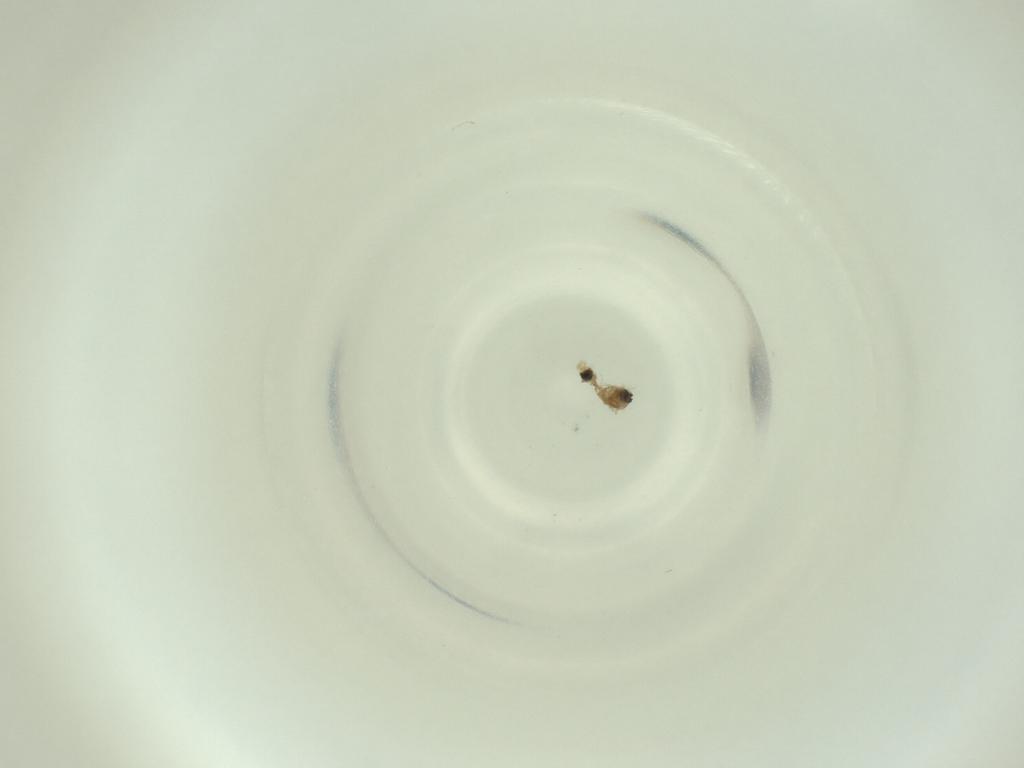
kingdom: Animalia
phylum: Arthropoda
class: Insecta
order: Diptera
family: Cecidomyiidae
